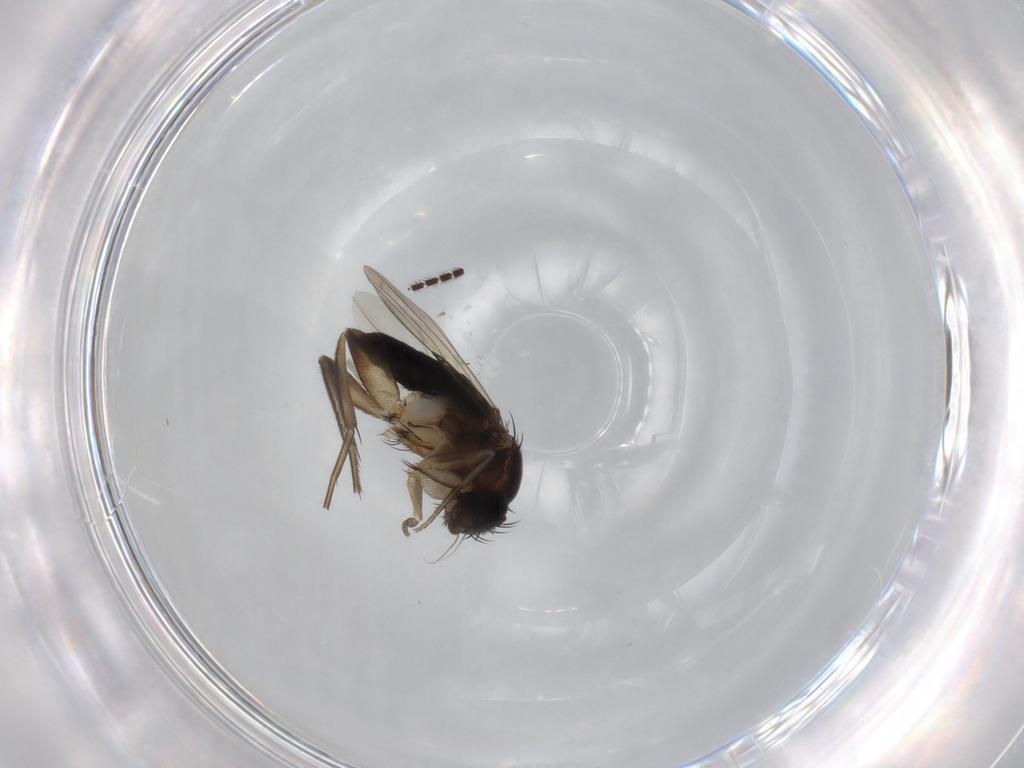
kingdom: Animalia
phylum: Arthropoda
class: Insecta
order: Diptera
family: Phoridae
